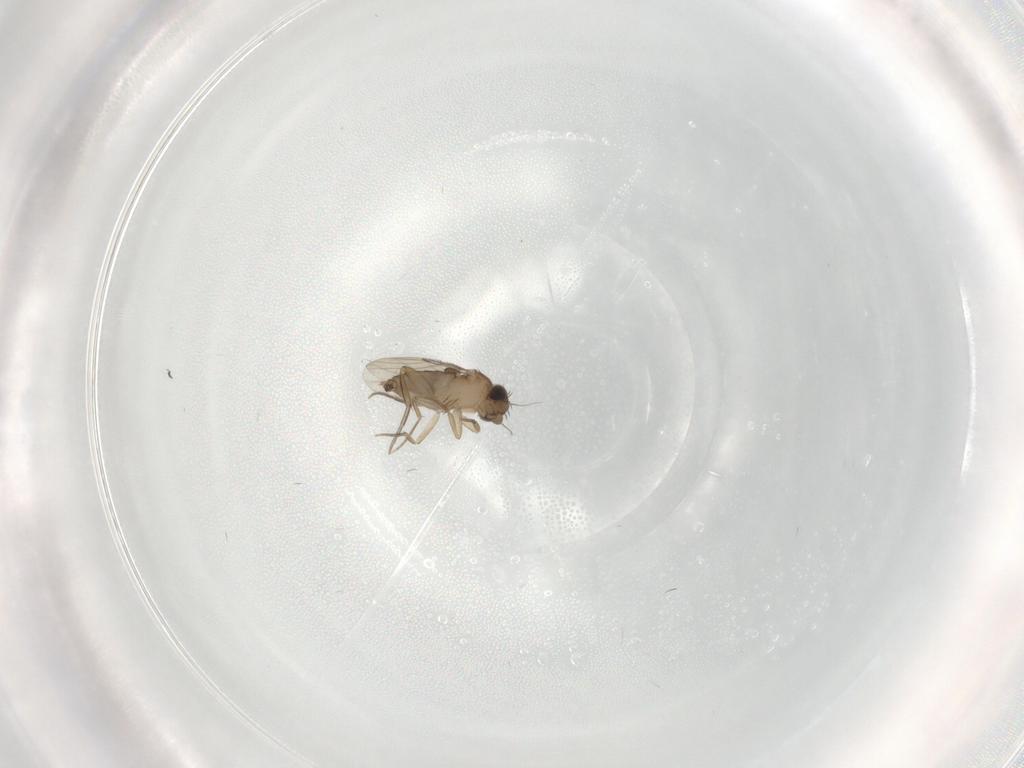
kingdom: Animalia
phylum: Arthropoda
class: Insecta
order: Diptera
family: Phoridae
